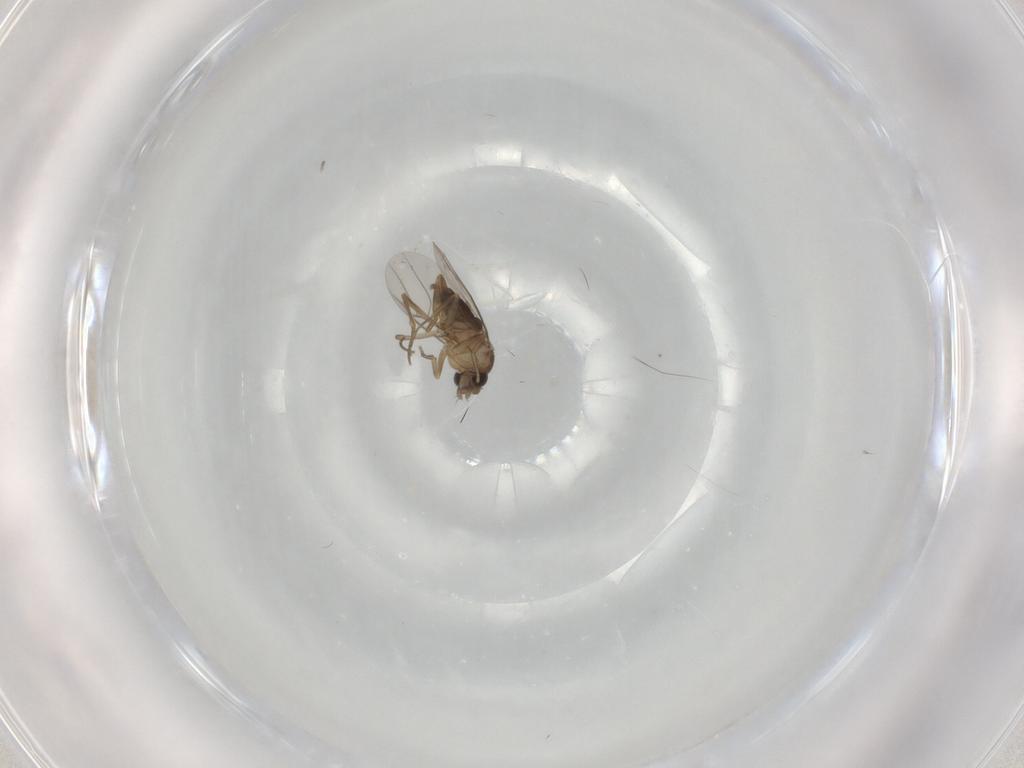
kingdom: Animalia
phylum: Arthropoda
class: Insecta
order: Diptera
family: Phoridae
